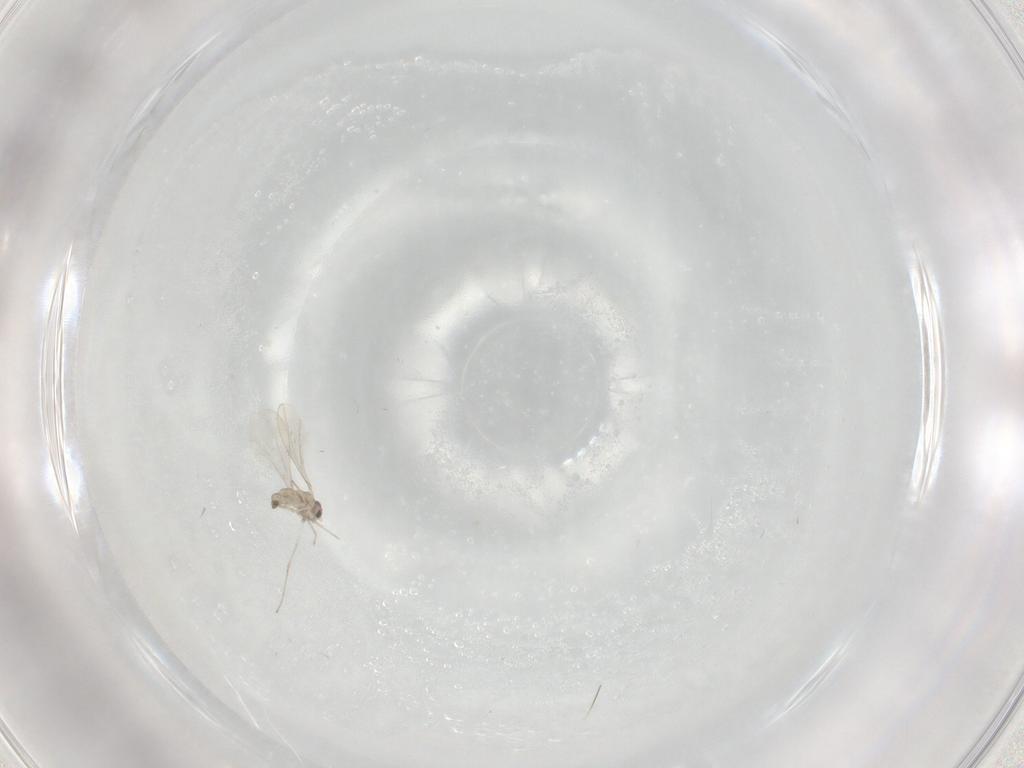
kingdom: Animalia
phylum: Arthropoda
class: Insecta
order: Diptera
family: Cecidomyiidae
